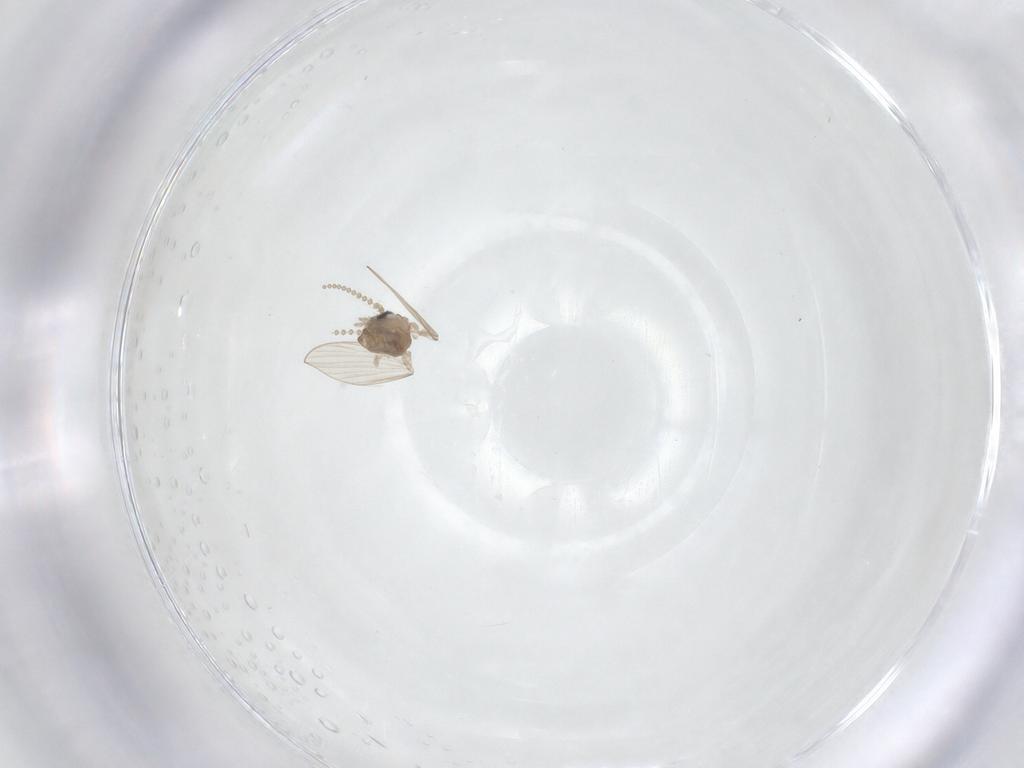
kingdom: Animalia
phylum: Arthropoda
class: Insecta
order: Diptera
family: Psychodidae
